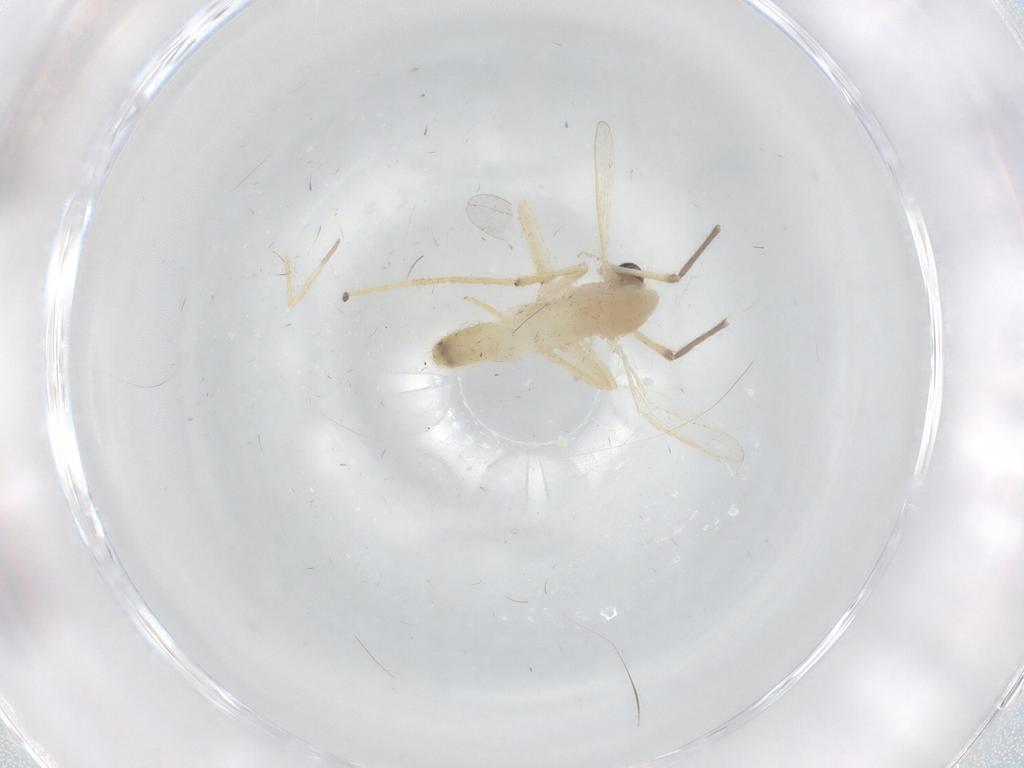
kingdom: Animalia
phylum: Arthropoda
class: Insecta
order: Diptera
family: Chironomidae
